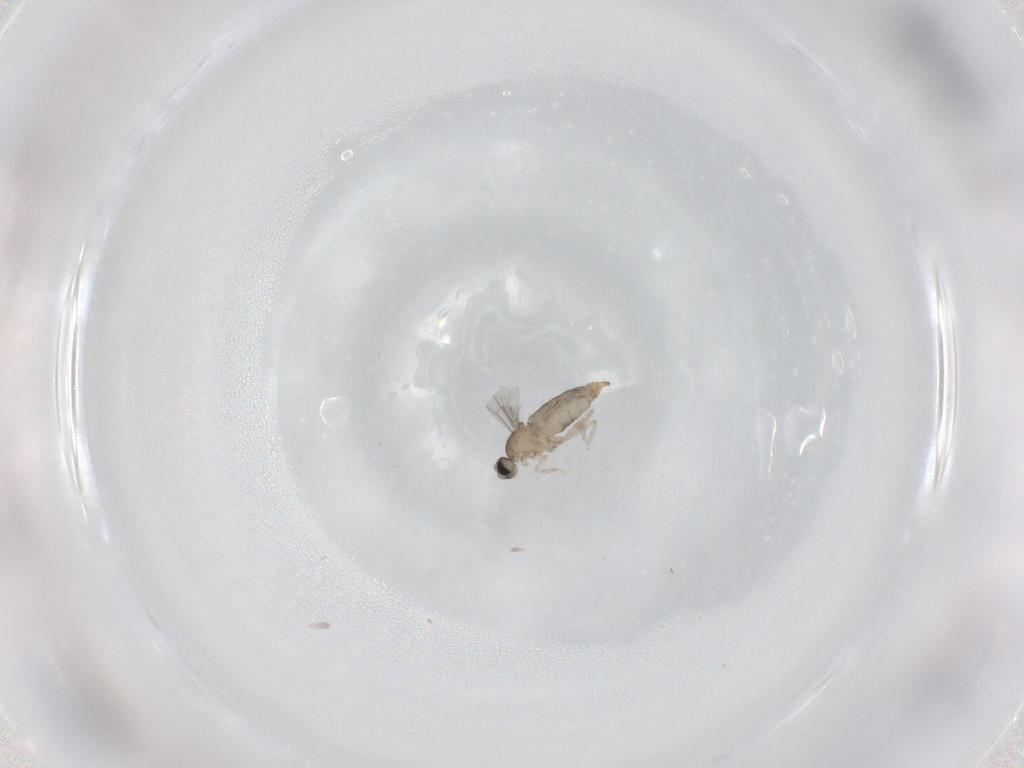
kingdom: Animalia
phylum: Arthropoda
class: Insecta
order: Diptera
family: Cecidomyiidae
